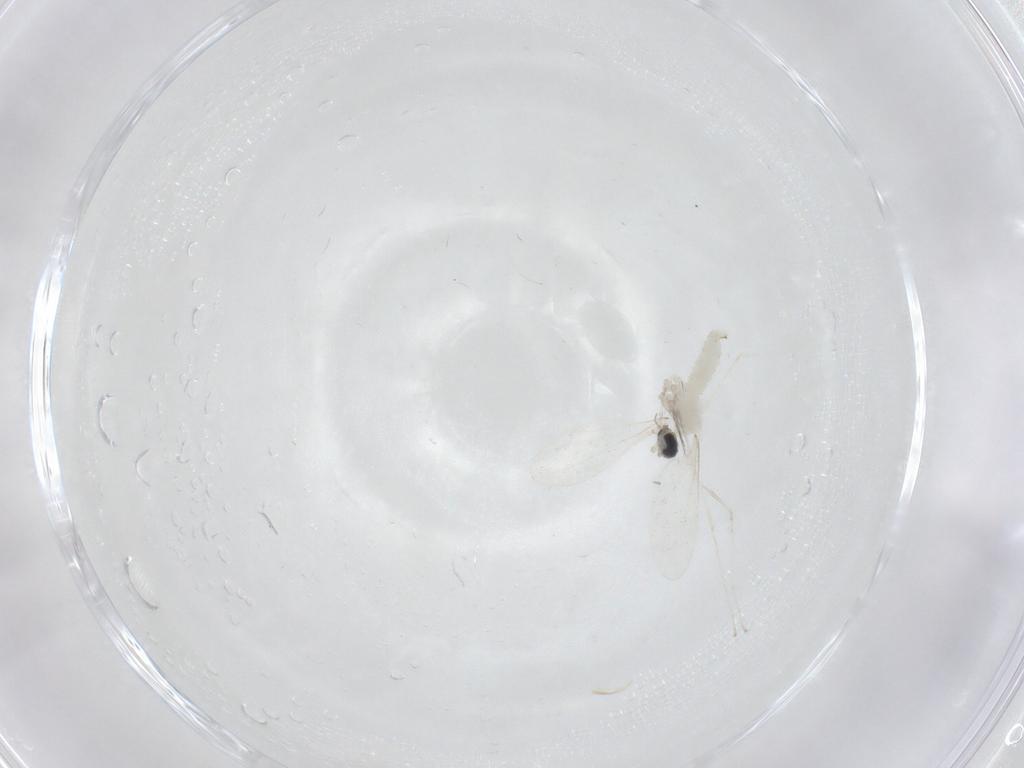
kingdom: Animalia
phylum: Arthropoda
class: Insecta
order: Diptera
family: Cecidomyiidae
